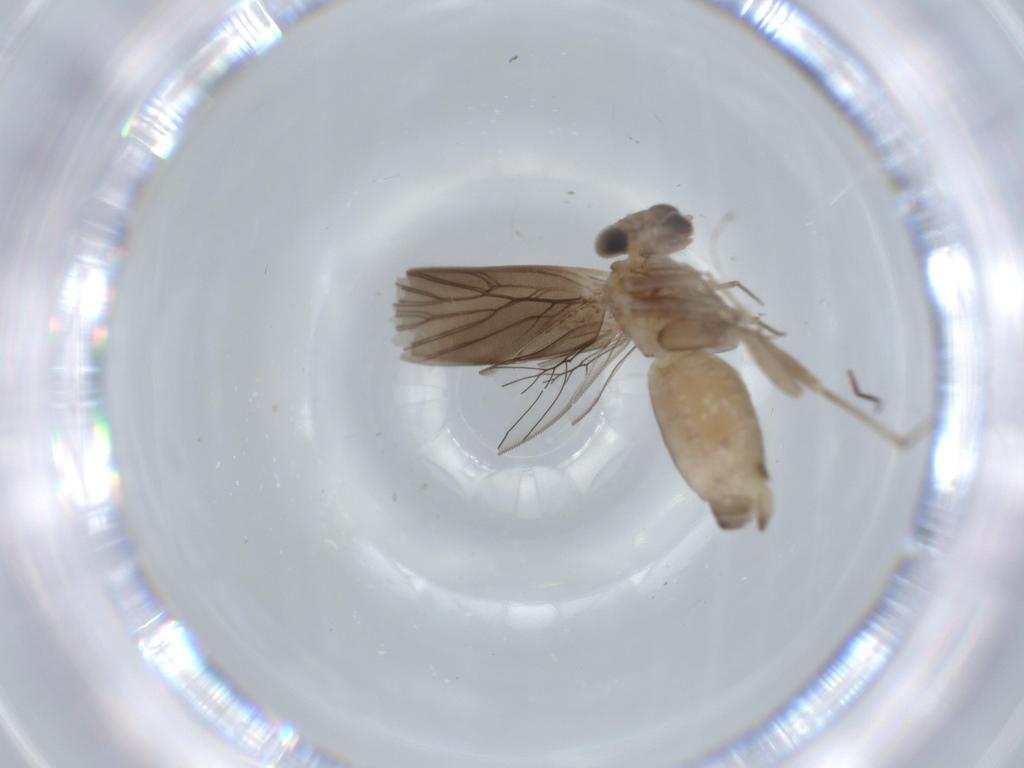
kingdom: Animalia
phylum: Arthropoda
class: Insecta
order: Psocodea
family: Lepidopsocidae
